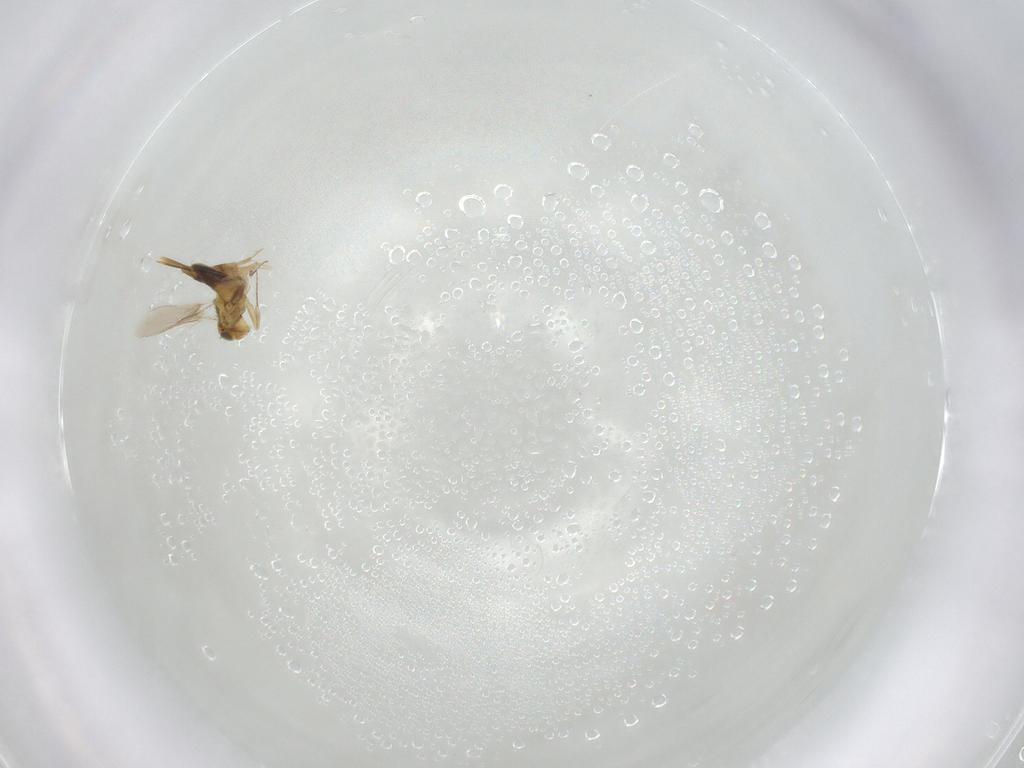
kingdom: Animalia
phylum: Arthropoda
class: Insecta
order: Hymenoptera
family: Aphelinidae
